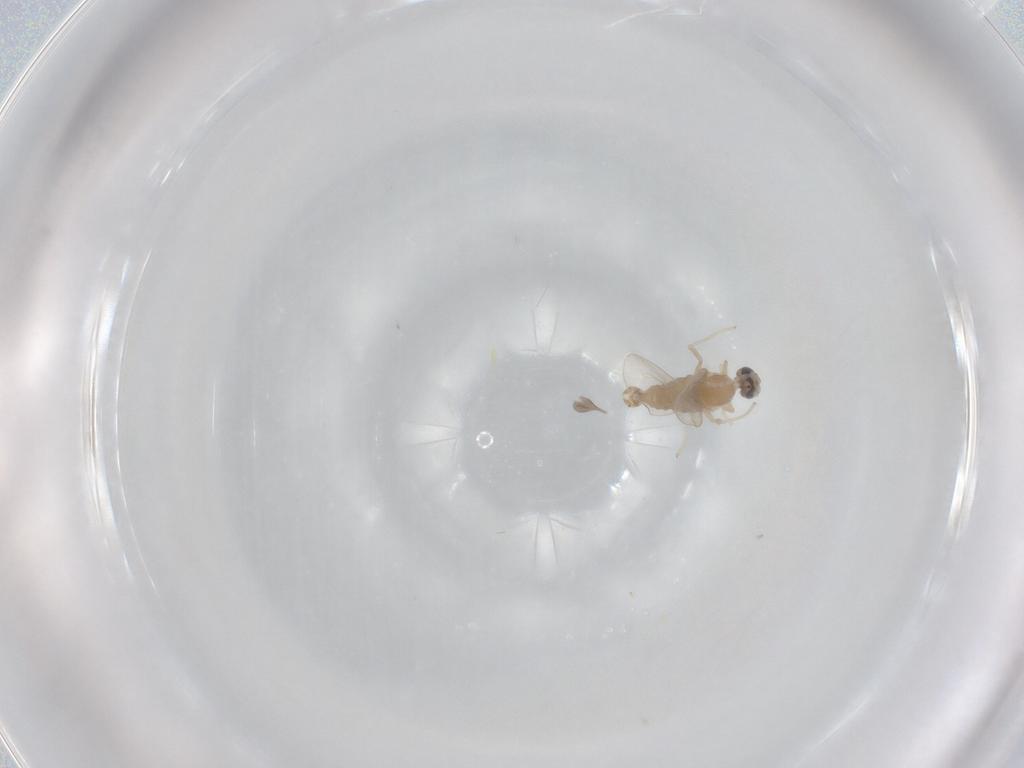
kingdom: Animalia
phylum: Arthropoda
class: Insecta
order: Diptera
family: Cecidomyiidae
